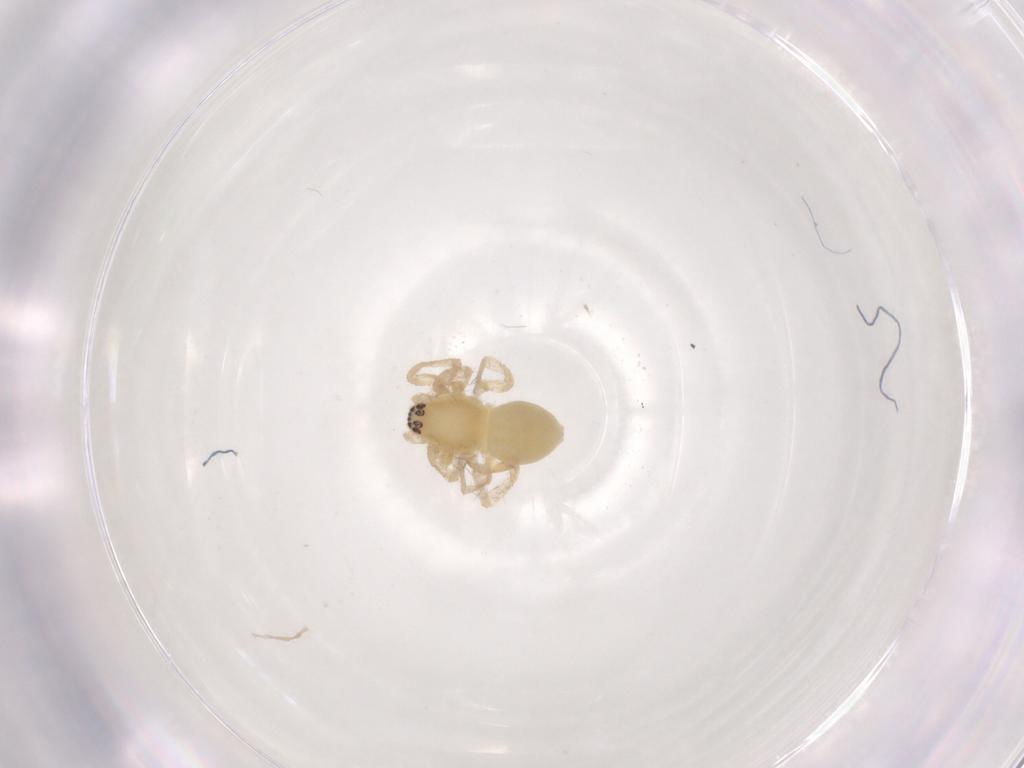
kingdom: Animalia
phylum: Arthropoda
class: Arachnida
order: Araneae
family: Anyphaenidae
